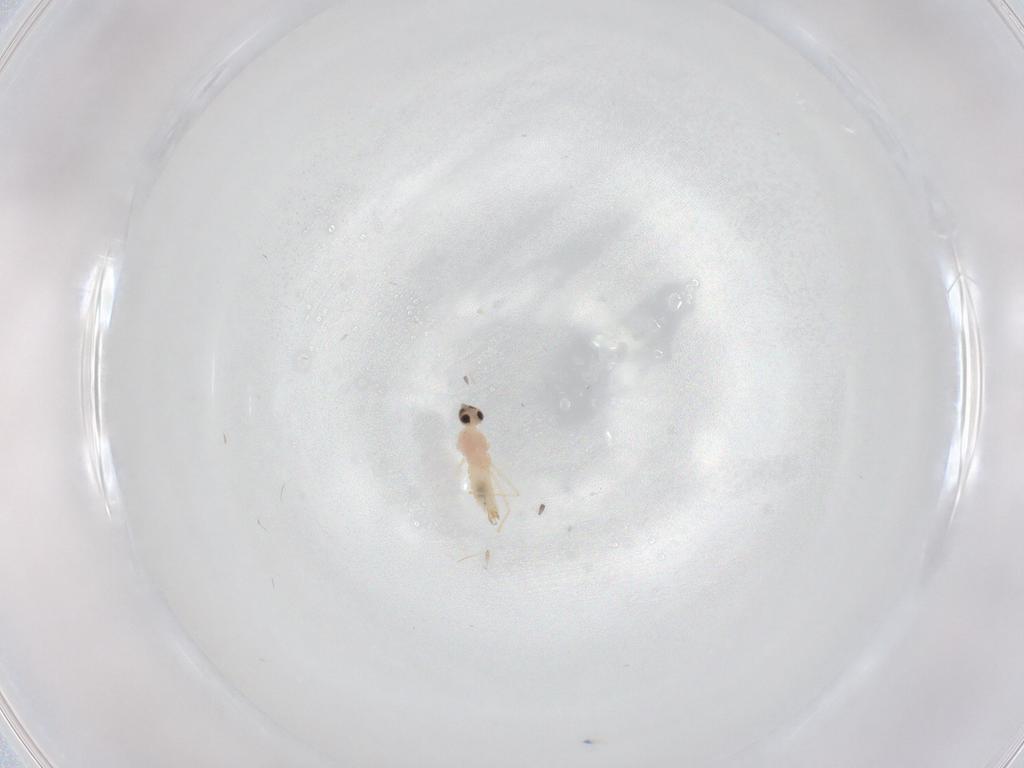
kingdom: Animalia
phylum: Arthropoda
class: Insecta
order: Diptera
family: Cecidomyiidae
